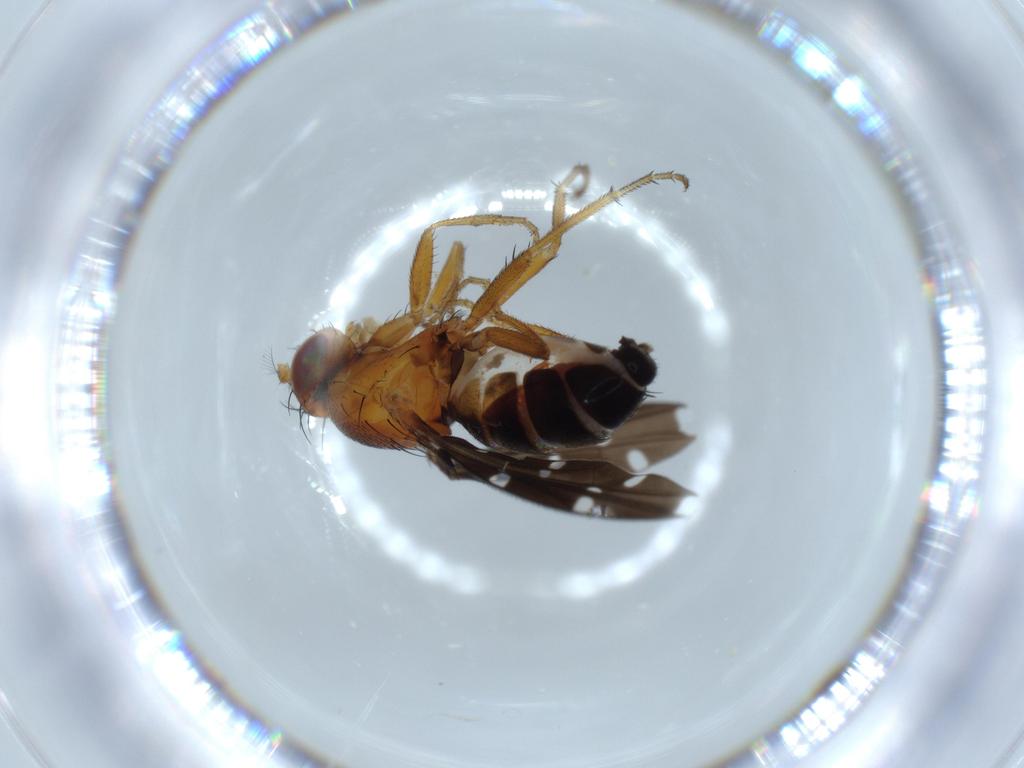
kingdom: Animalia
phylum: Arthropoda
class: Insecta
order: Diptera
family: Ephydridae
